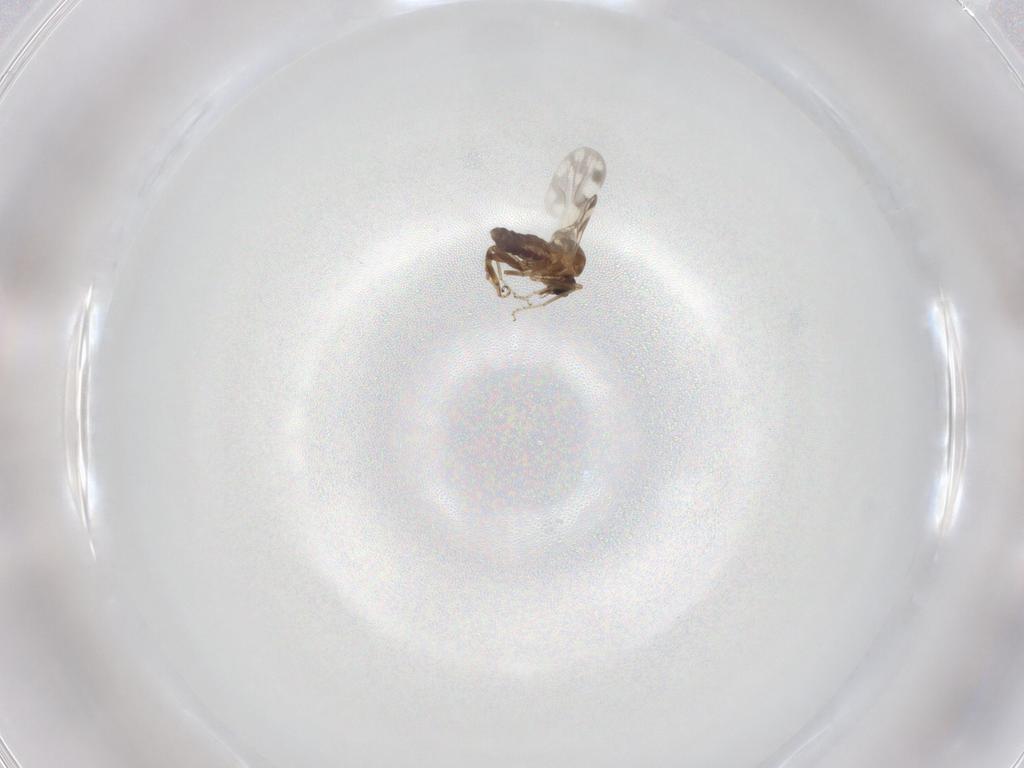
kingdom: Animalia
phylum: Arthropoda
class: Insecta
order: Diptera
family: Ceratopogonidae
